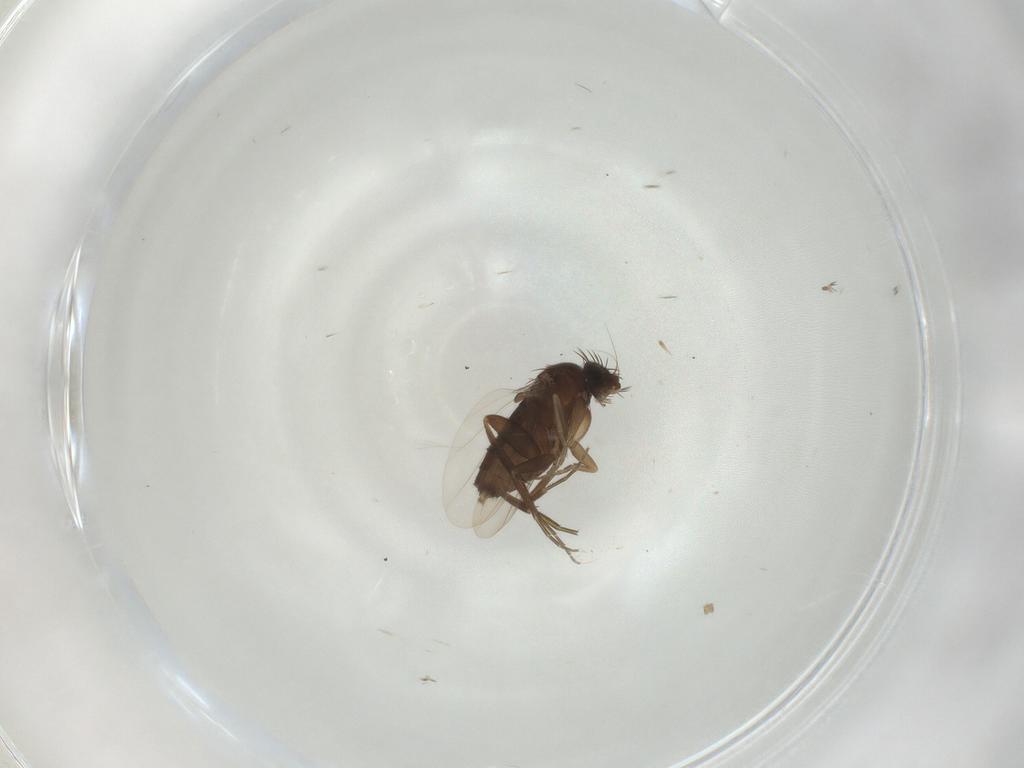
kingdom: Animalia
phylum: Arthropoda
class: Insecta
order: Diptera
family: Phoridae
